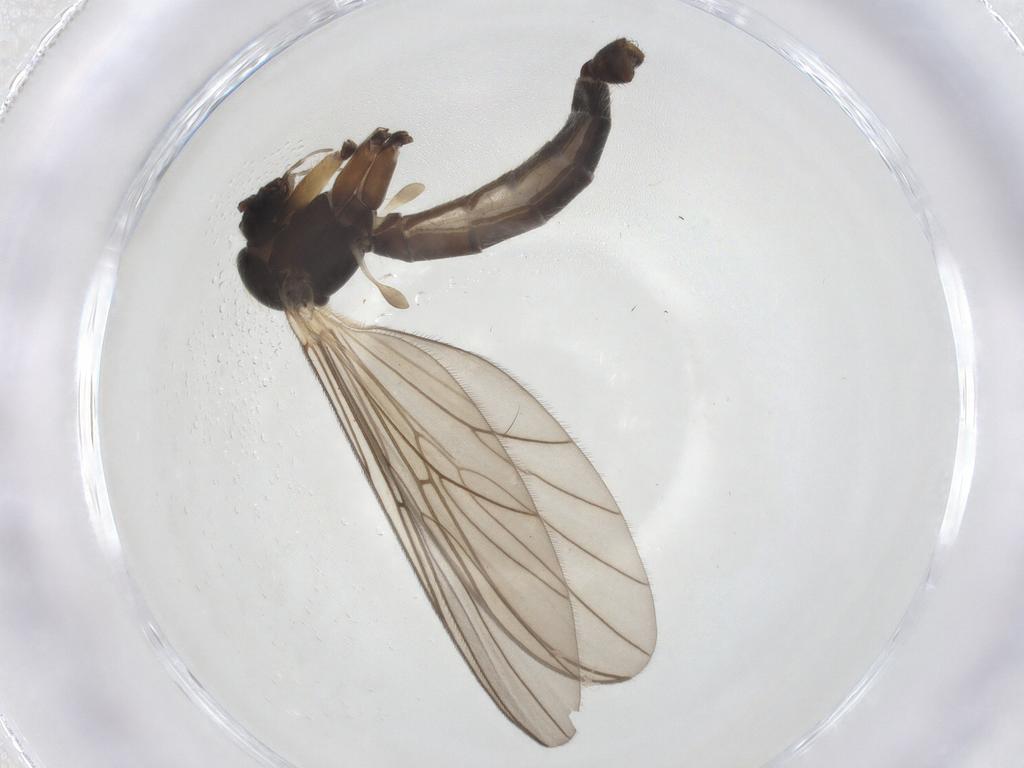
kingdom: Animalia
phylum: Arthropoda
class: Insecta
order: Diptera
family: Mycetophilidae
